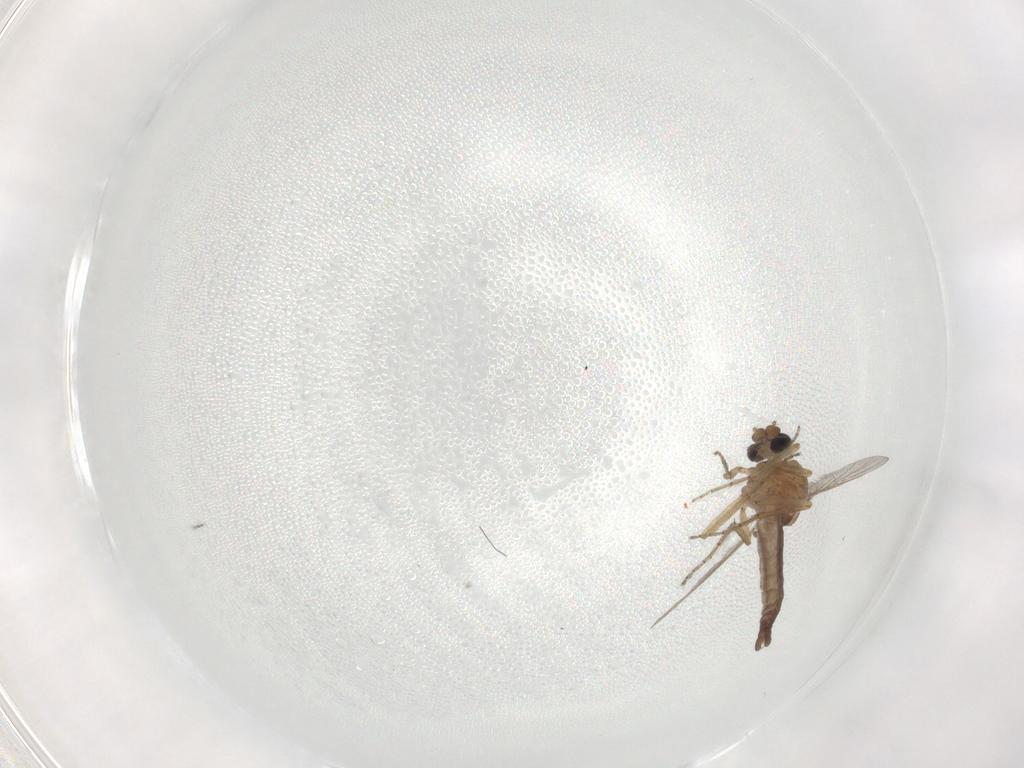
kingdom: Animalia
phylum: Arthropoda
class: Insecta
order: Diptera
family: Ceratopogonidae
